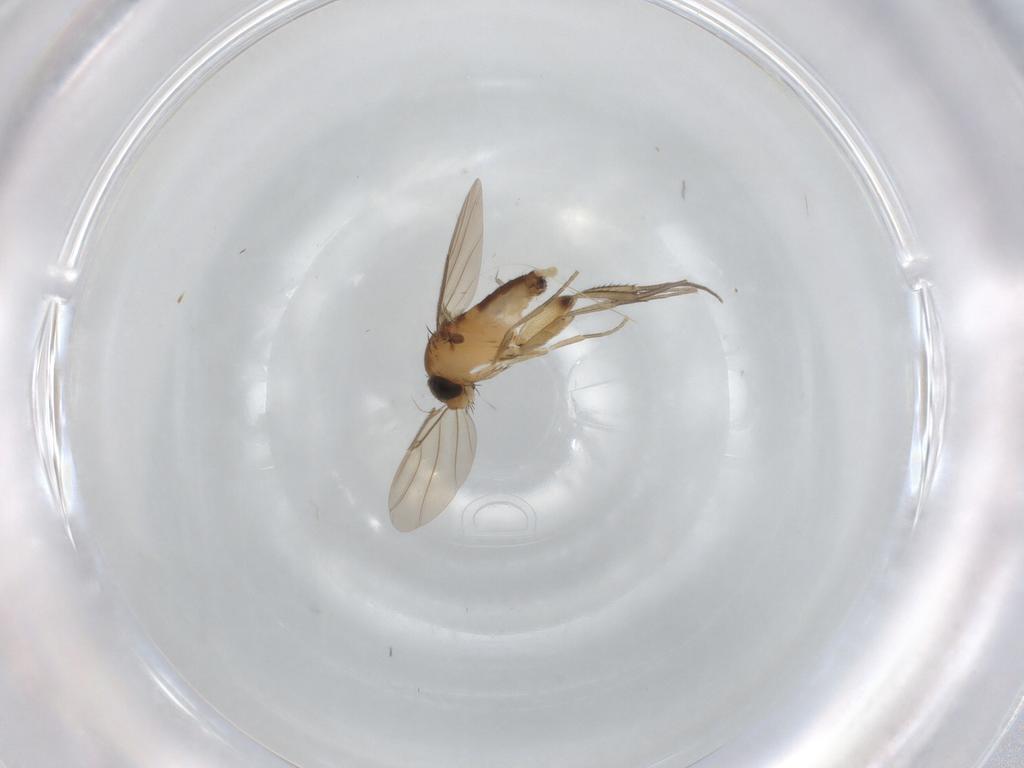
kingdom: Animalia
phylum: Arthropoda
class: Insecta
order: Diptera
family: Phoridae
